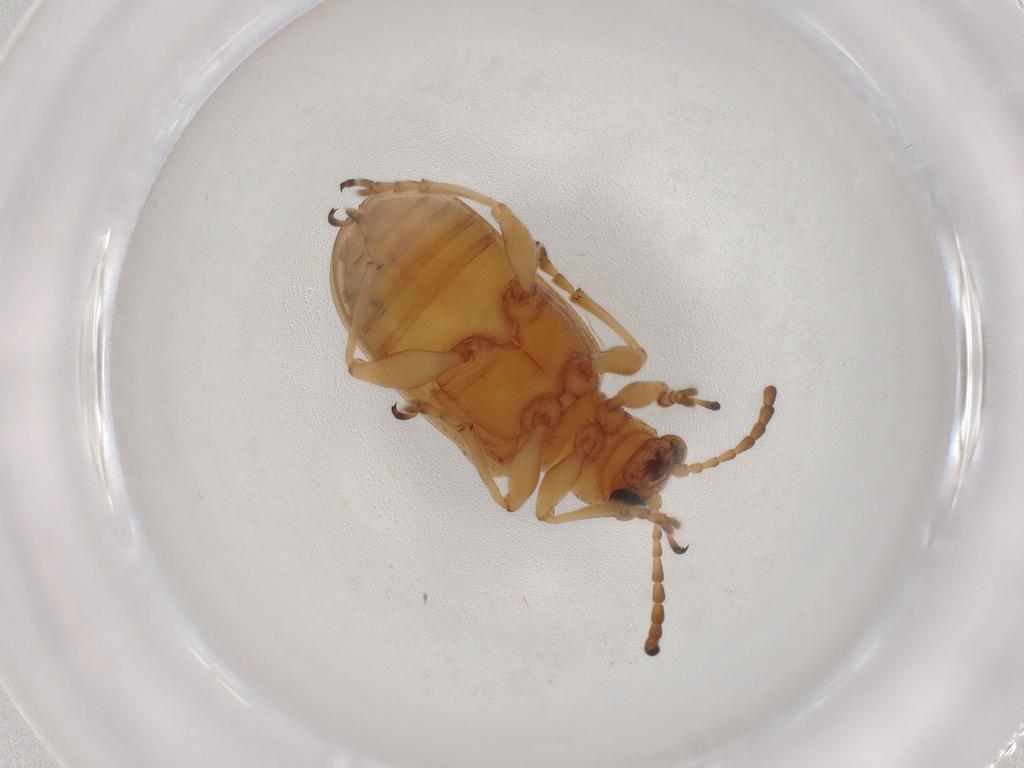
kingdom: Animalia
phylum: Arthropoda
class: Insecta
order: Coleoptera
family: Chrysomelidae
